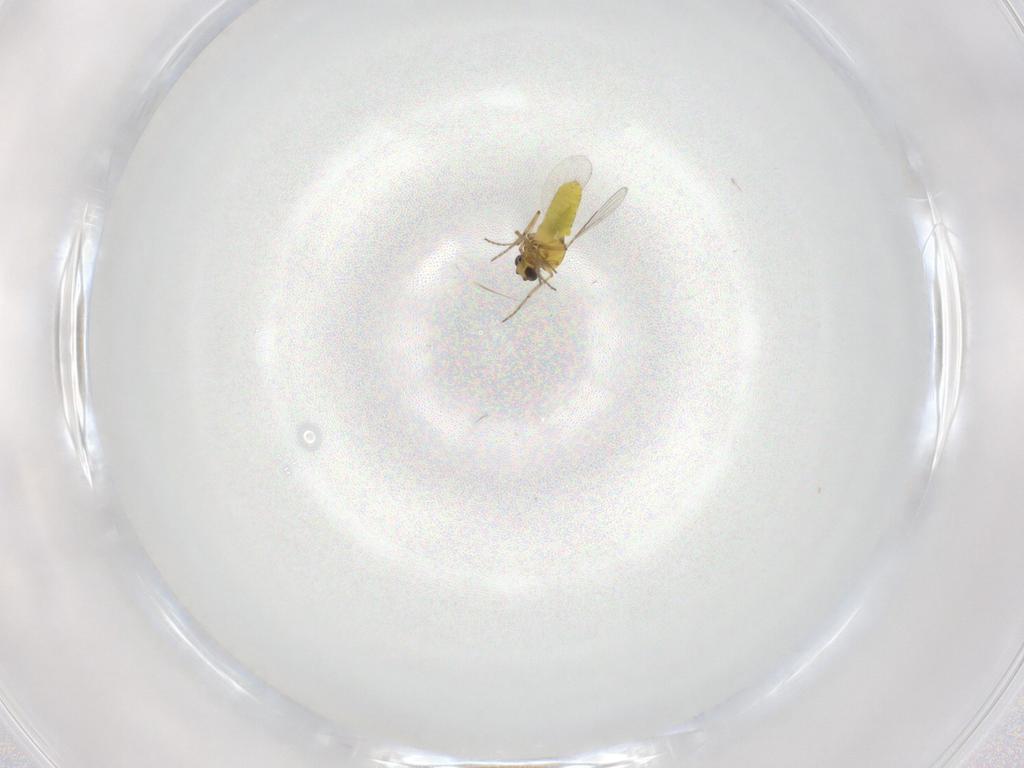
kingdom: Animalia
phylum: Arthropoda
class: Insecta
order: Diptera
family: Ceratopogonidae
